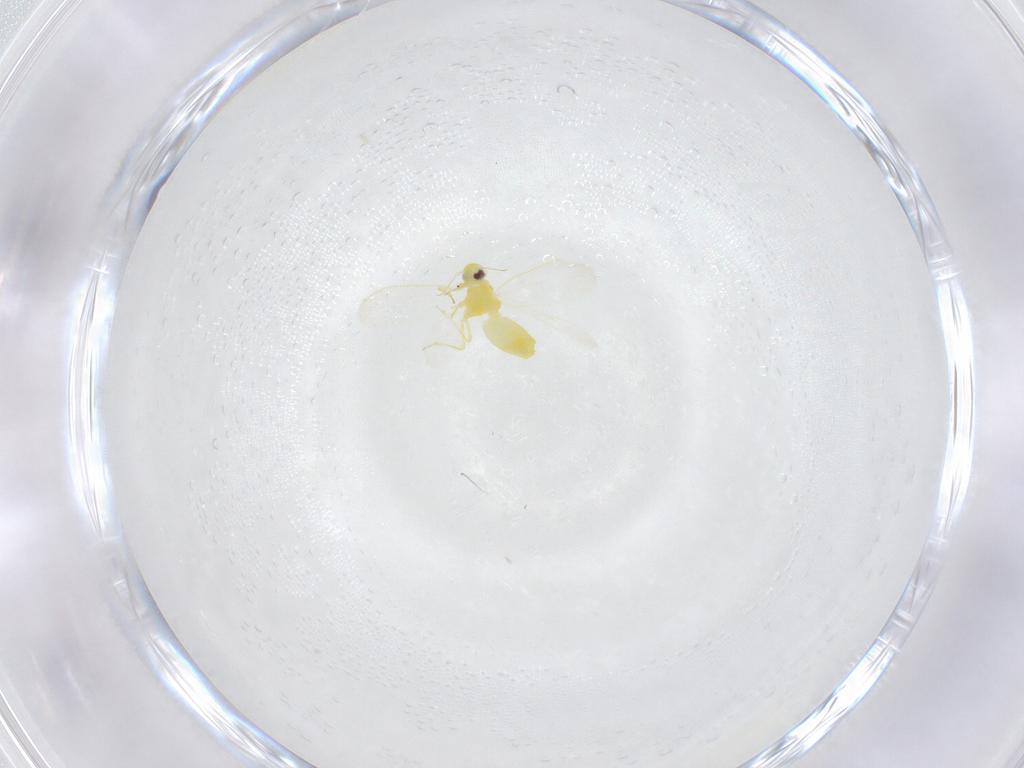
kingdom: Animalia
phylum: Arthropoda
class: Insecta
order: Hemiptera
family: Aleyrodidae
